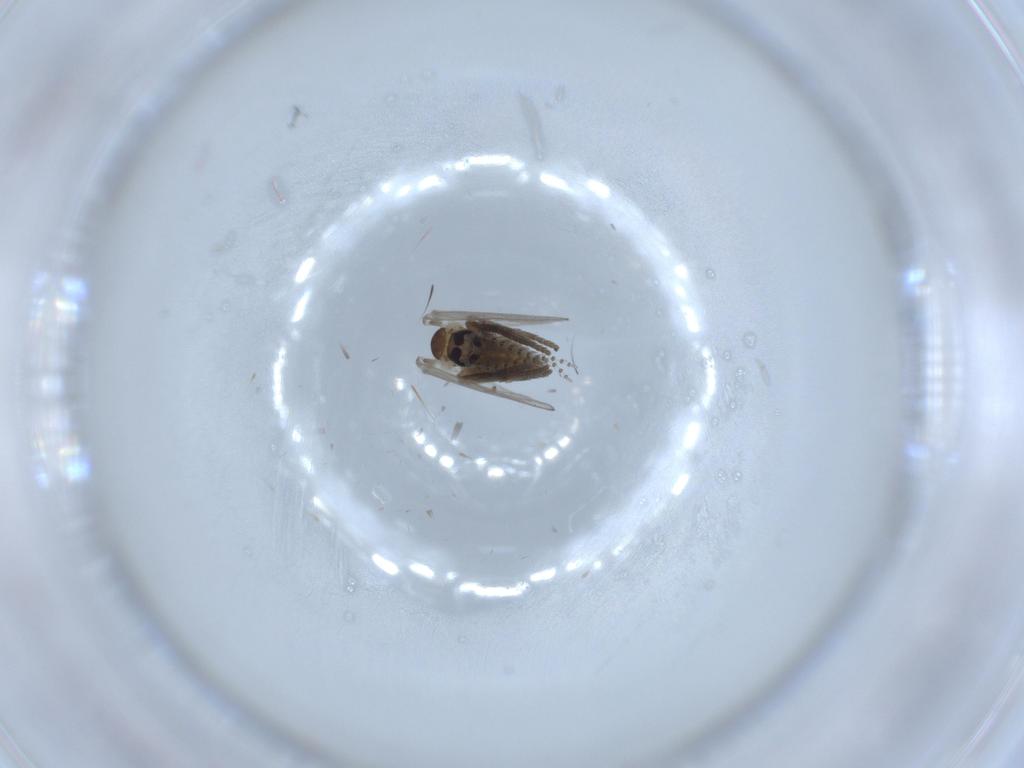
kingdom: Animalia
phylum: Arthropoda
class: Insecta
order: Diptera
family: Psychodidae
